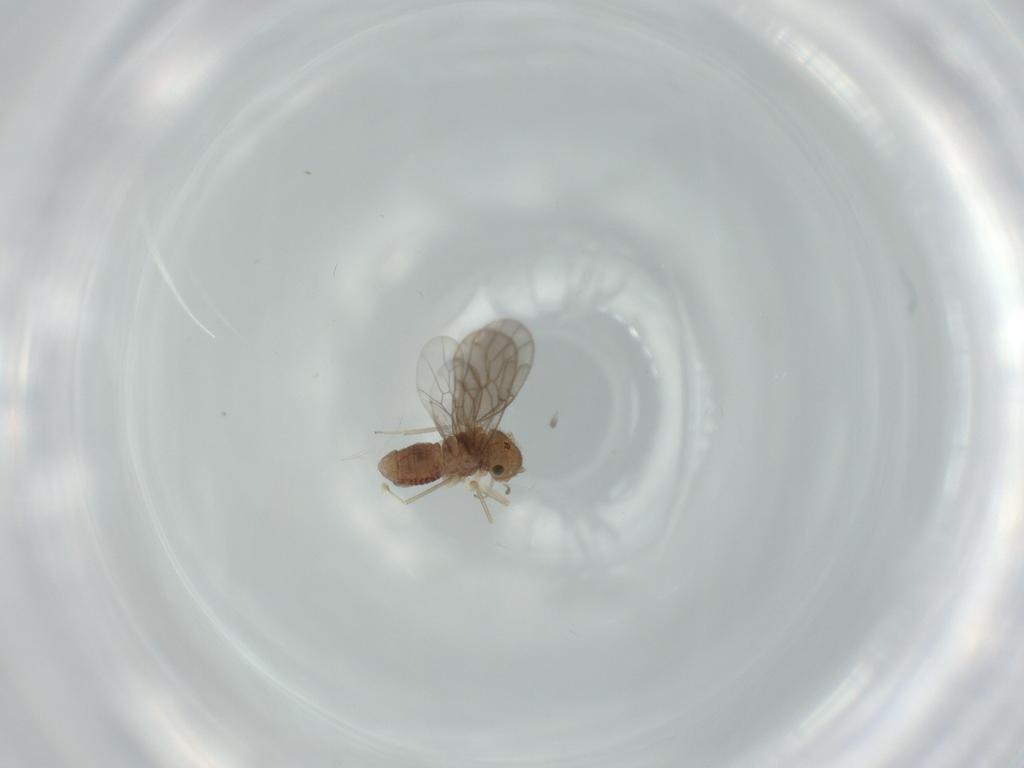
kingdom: Animalia
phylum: Arthropoda
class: Insecta
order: Psocodea
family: Ectopsocidae
